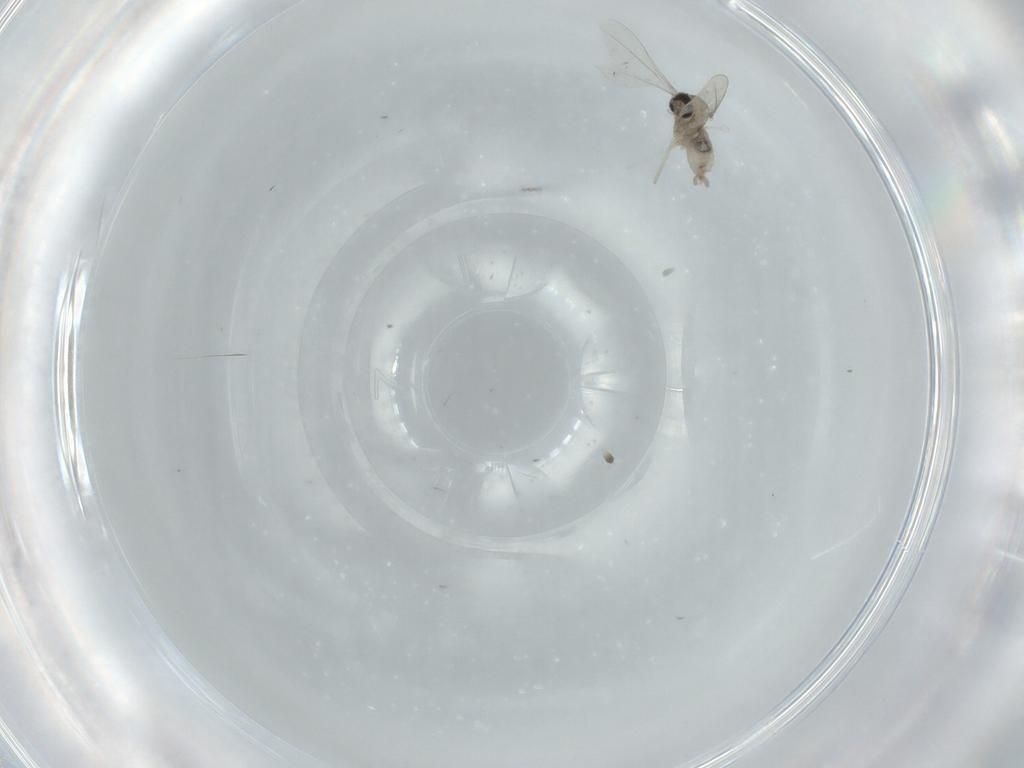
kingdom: Animalia
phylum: Arthropoda
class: Insecta
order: Diptera
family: Cecidomyiidae
